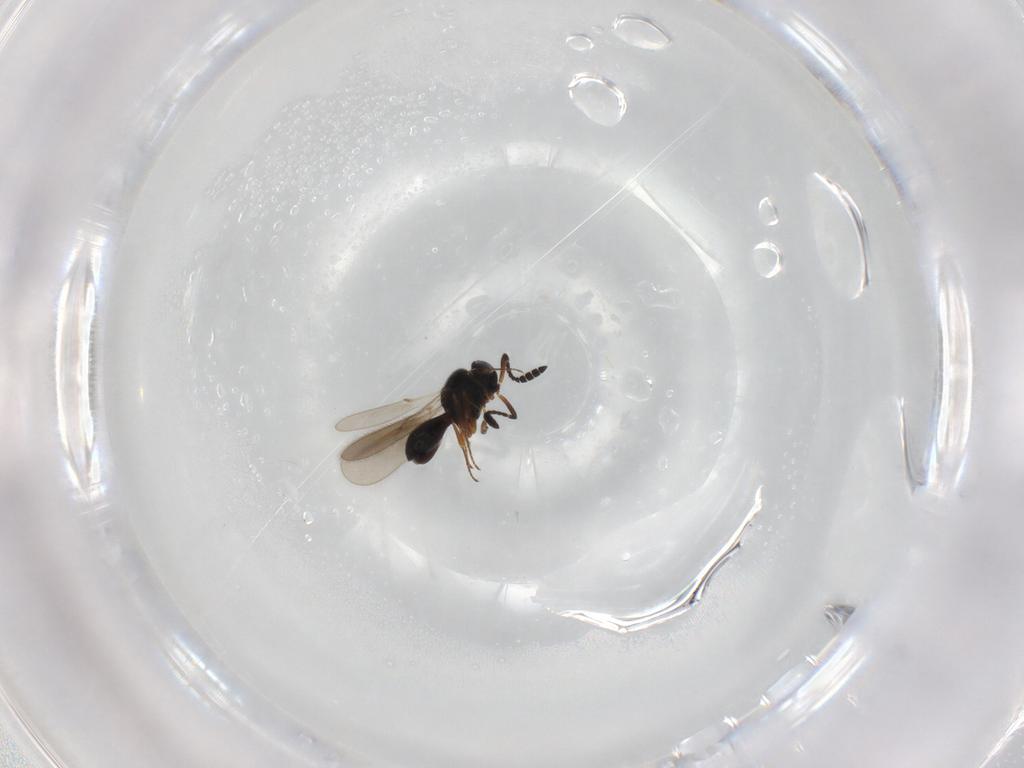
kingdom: Animalia
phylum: Arthropoda
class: Insecta
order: Hymenoptera
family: Scelionidae
